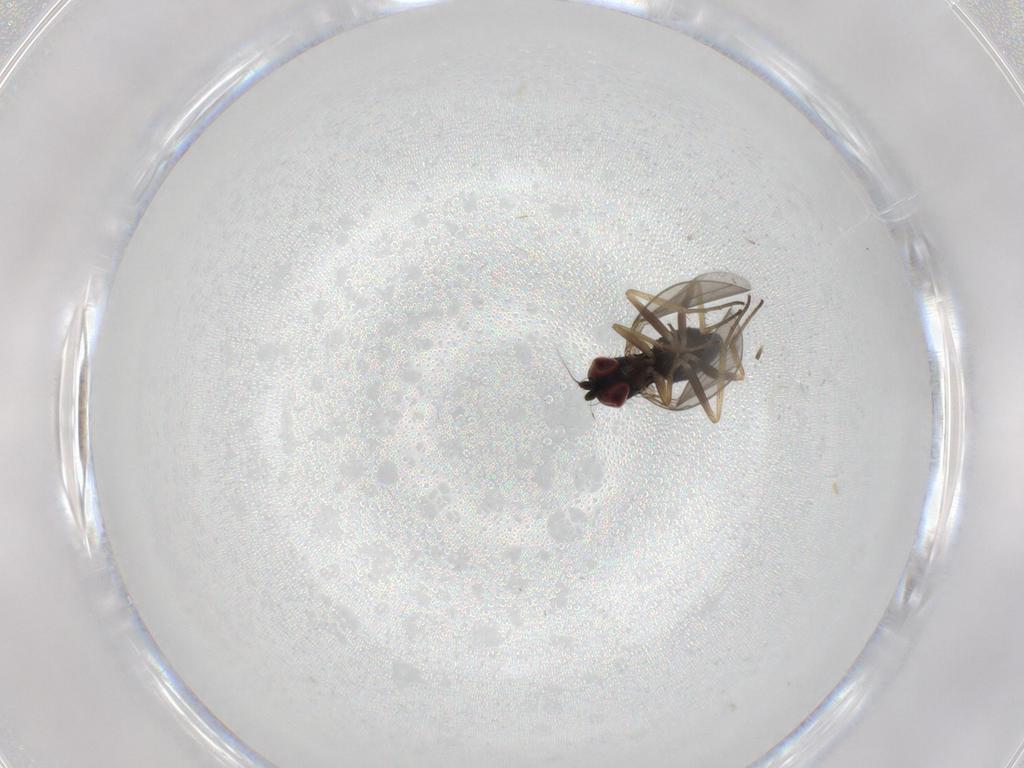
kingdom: Animalia
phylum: Arthropoda
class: Insecta
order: Diptera
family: Dolichopodidae
